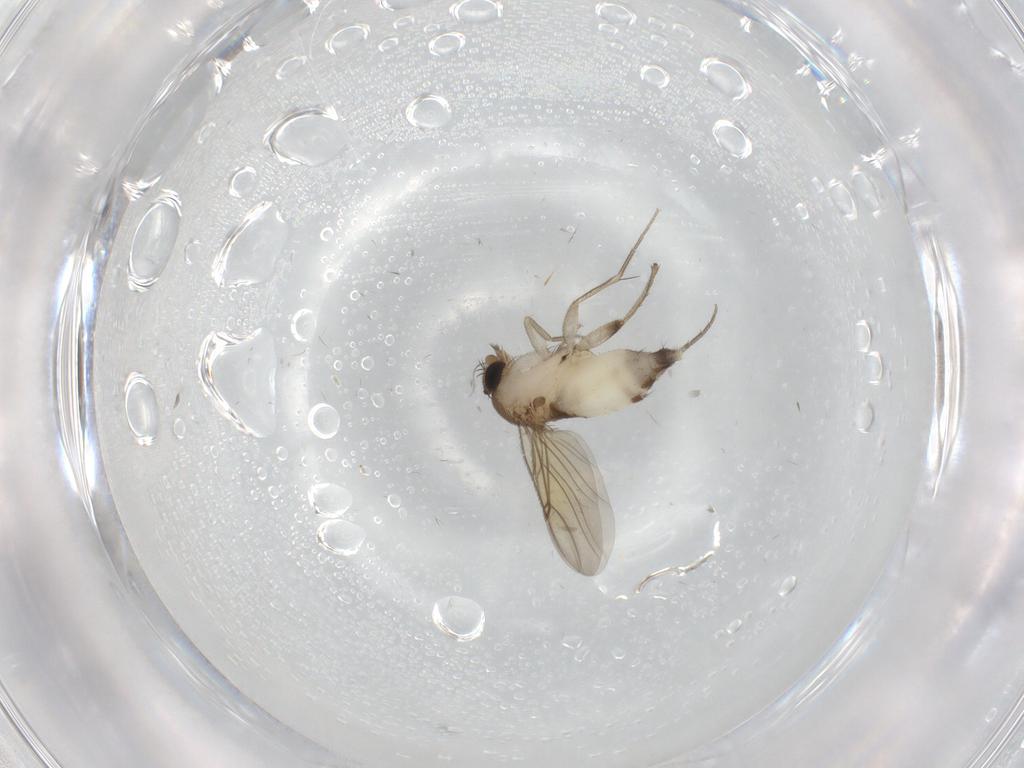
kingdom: Animalia
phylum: Arthropoda
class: Insecta
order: Diptera
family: Phoridae
